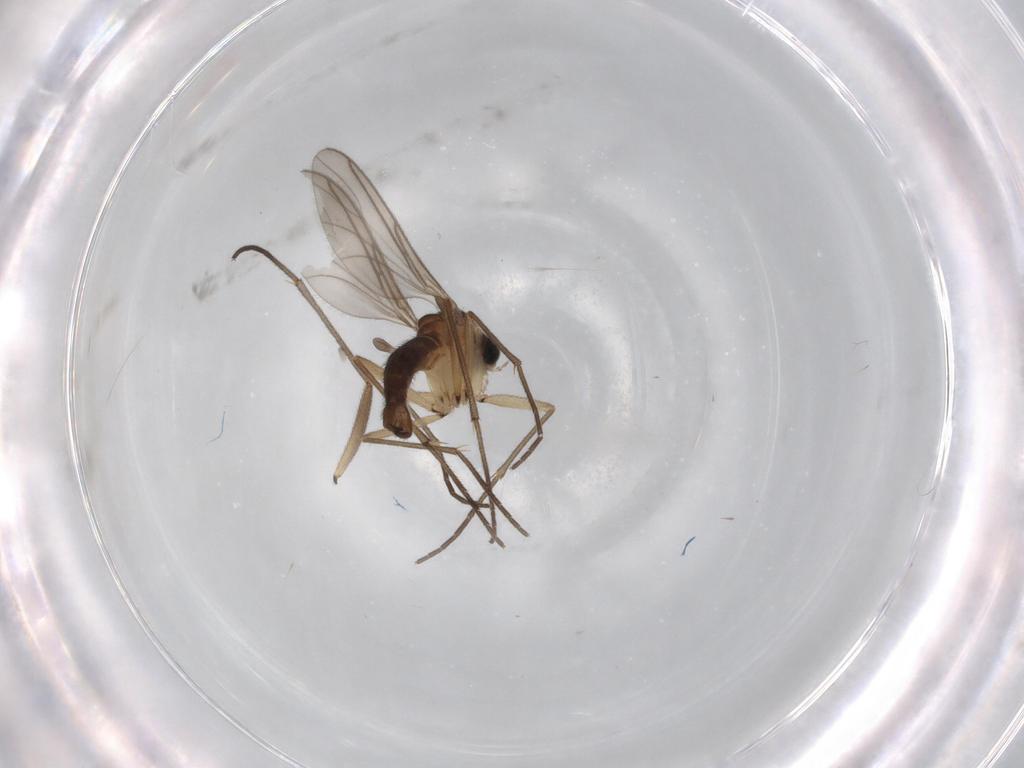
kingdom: Animalia
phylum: Arthropoda
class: Insecta
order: Diptera
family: Sciaridae
